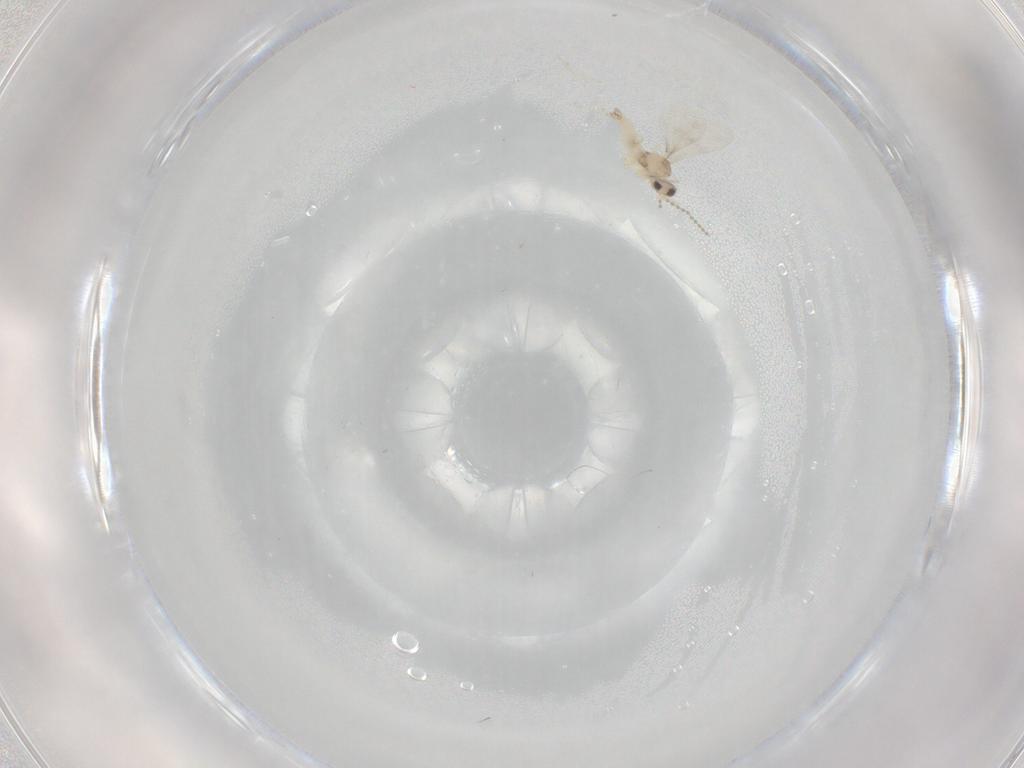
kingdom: Animalia
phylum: Arthropoda
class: Insecta
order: Diptera
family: Cecidomyiidae
